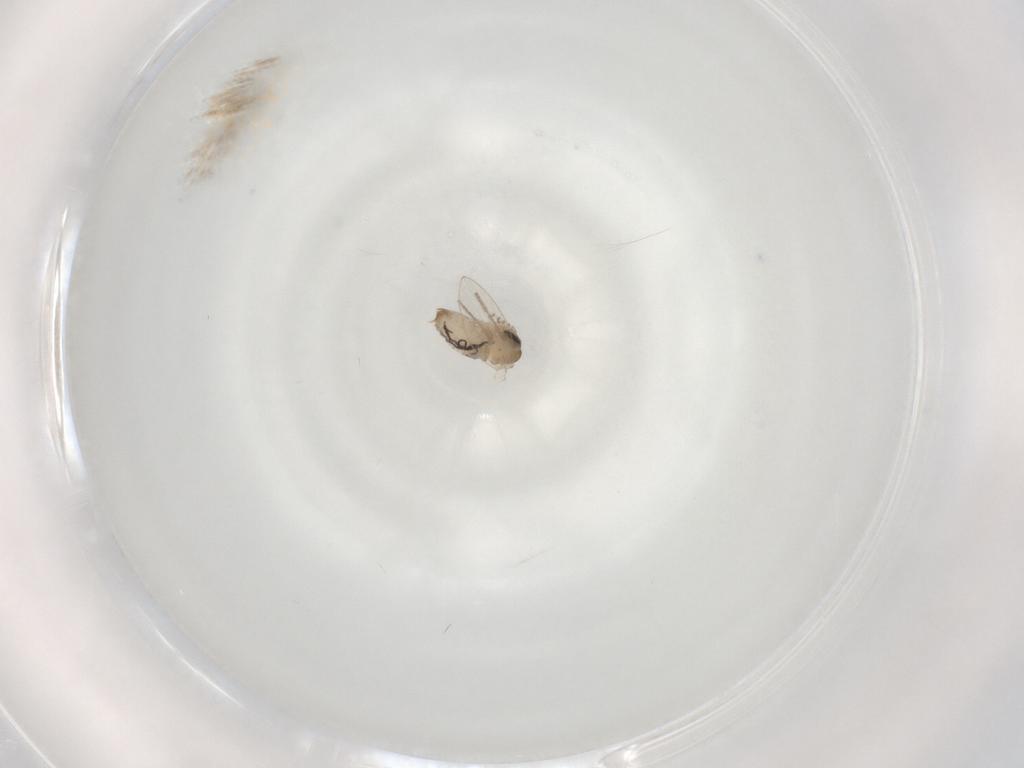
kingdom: Animalia
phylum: Arthropoda
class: Insecta
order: Diptera
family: Psychodidae
